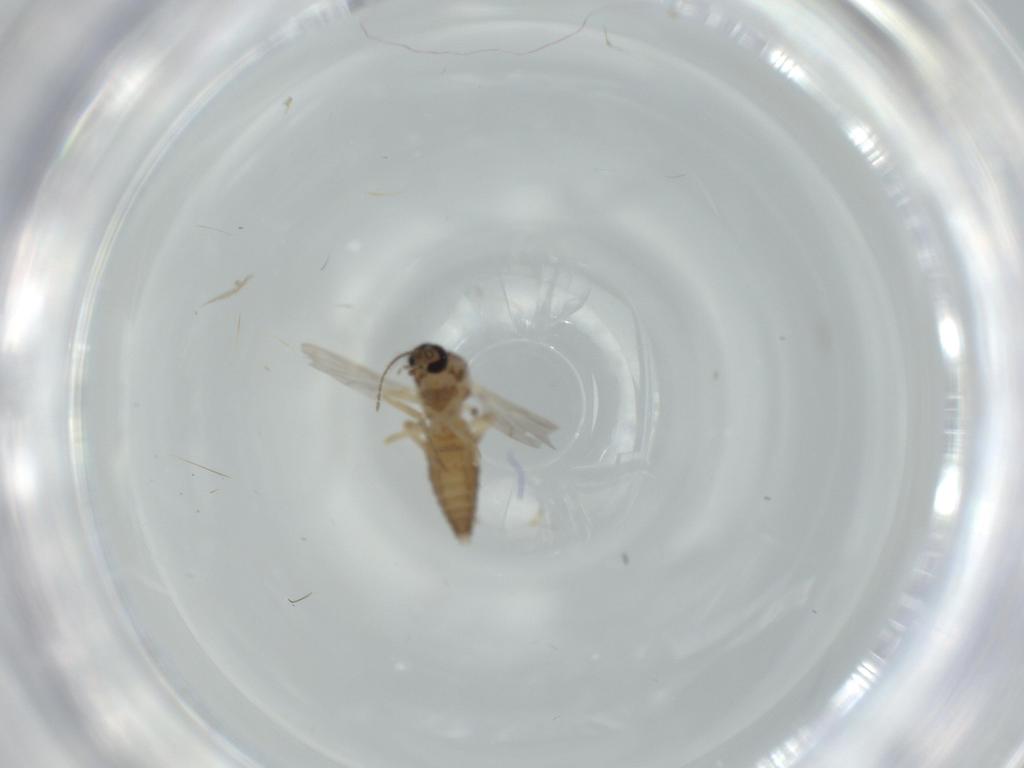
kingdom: Animalia
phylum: Arthropoda
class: Insecta
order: Diptera
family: Ceratopogonidae
